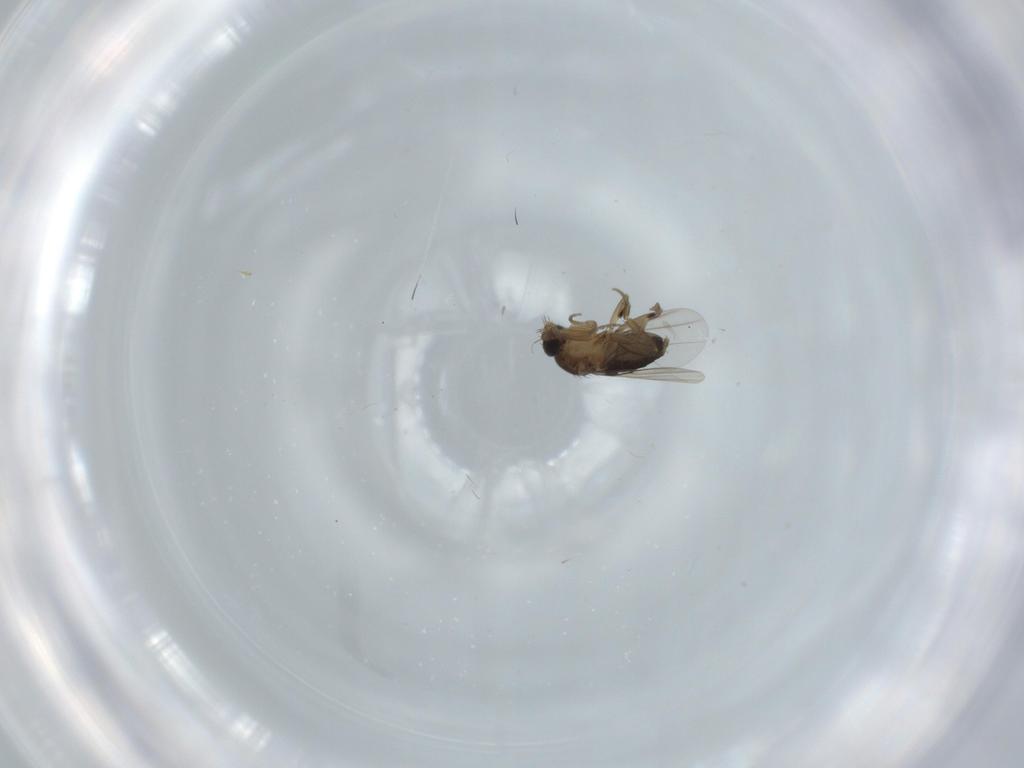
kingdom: Animalia
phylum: Arthropoda
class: Insecta
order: Diptera
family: Phoridae
